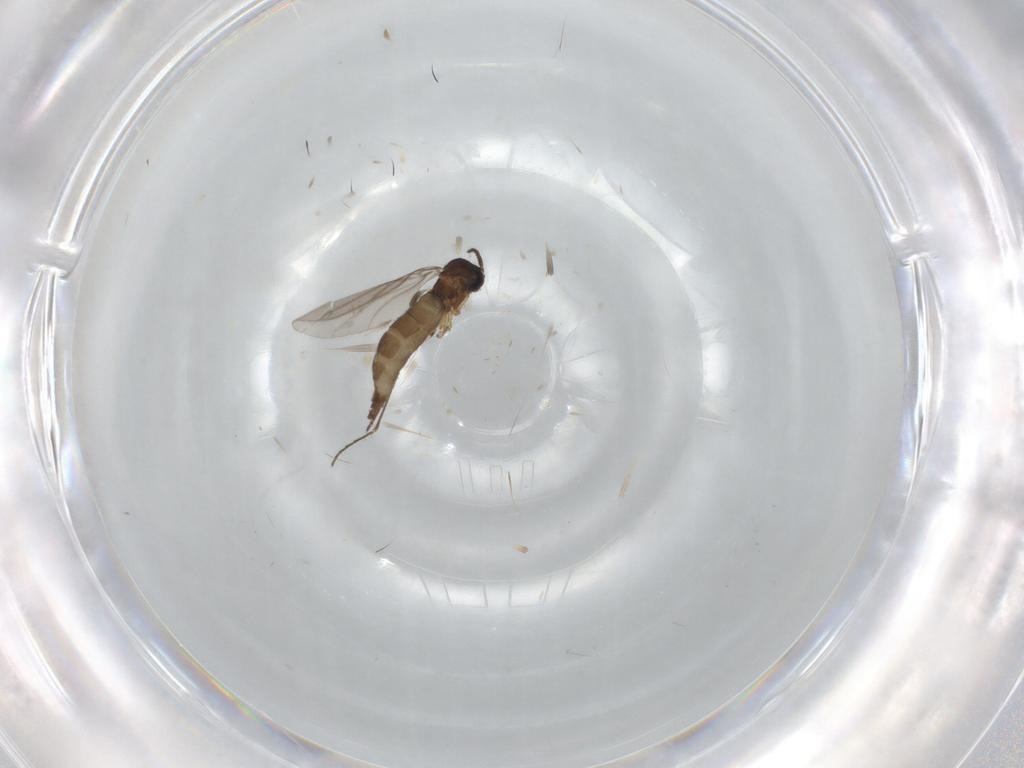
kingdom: Animalia
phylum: Arthropoda
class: Insecta
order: Diptera
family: Sciaridae
